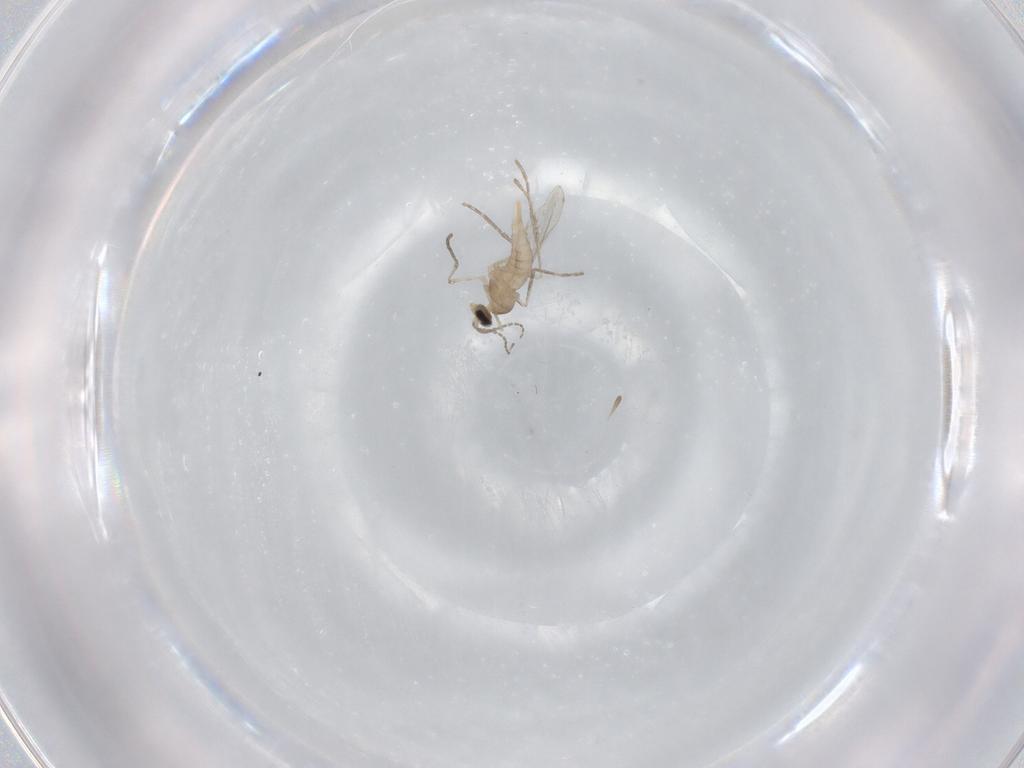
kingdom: Animalia
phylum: Arthropoda
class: Insecta
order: Diptera
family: Cecidomyiidae
